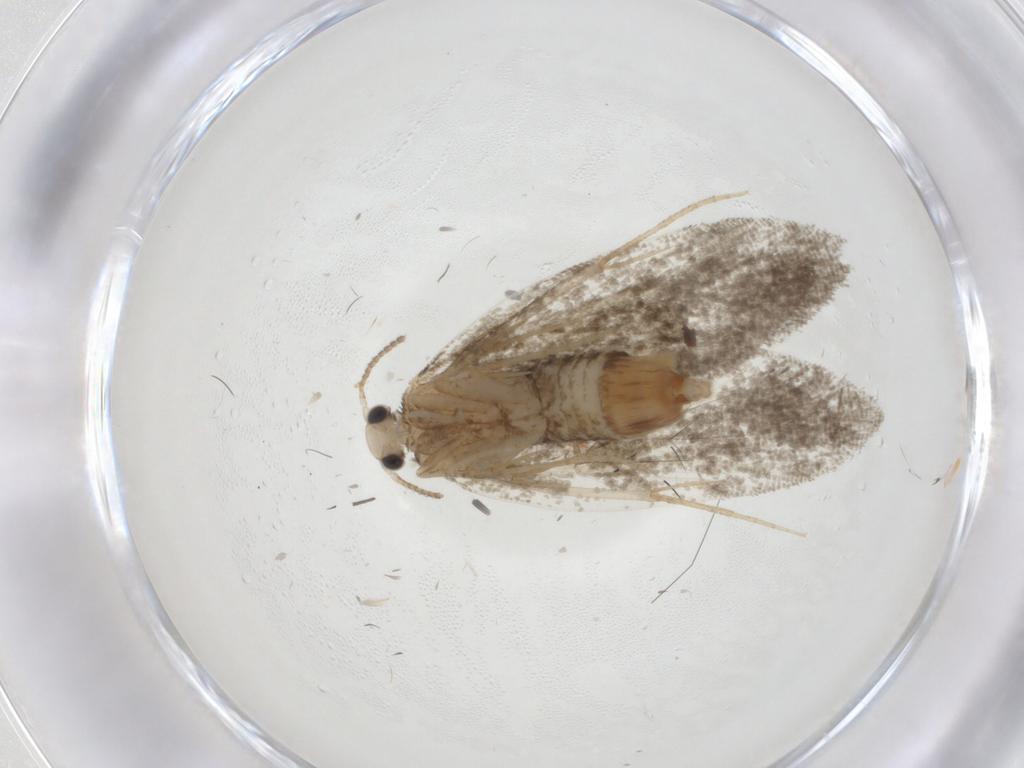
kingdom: Animalia
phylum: Arthropoda
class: Insecta
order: Lepidoptera
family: Psychidae
